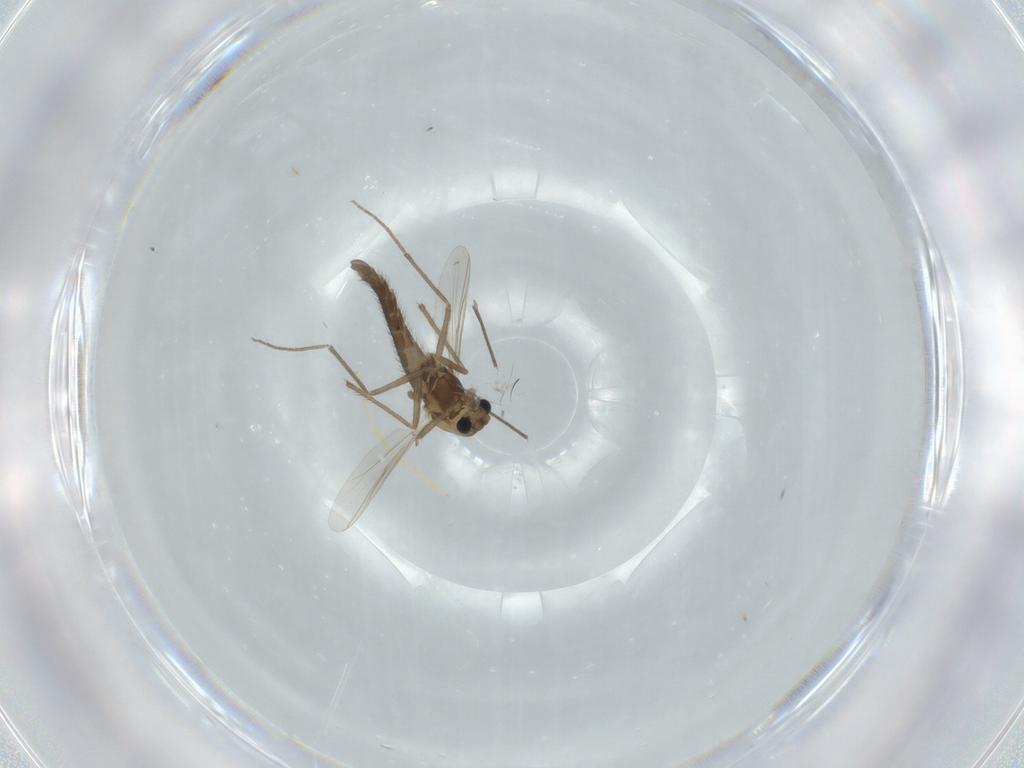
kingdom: Animalia
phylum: Arthropoda
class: Insecta
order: Diptera
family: Chironomidae
